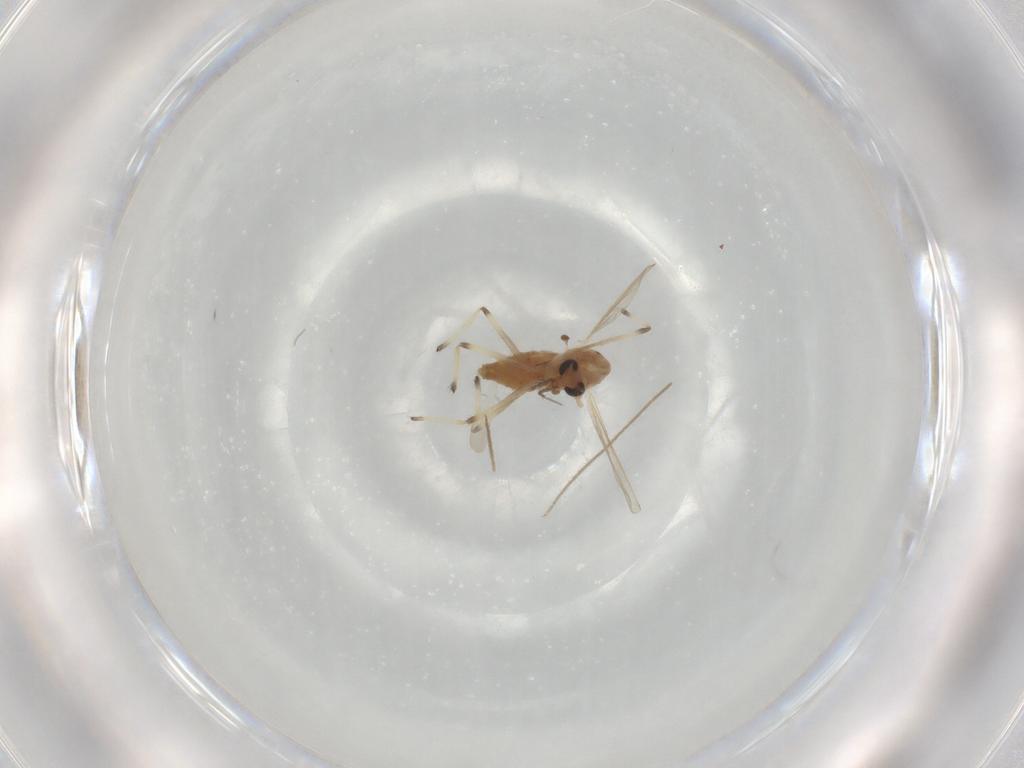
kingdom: Animalia
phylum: Arthropoda
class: Insecta
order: Diptera
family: Chironomidae
